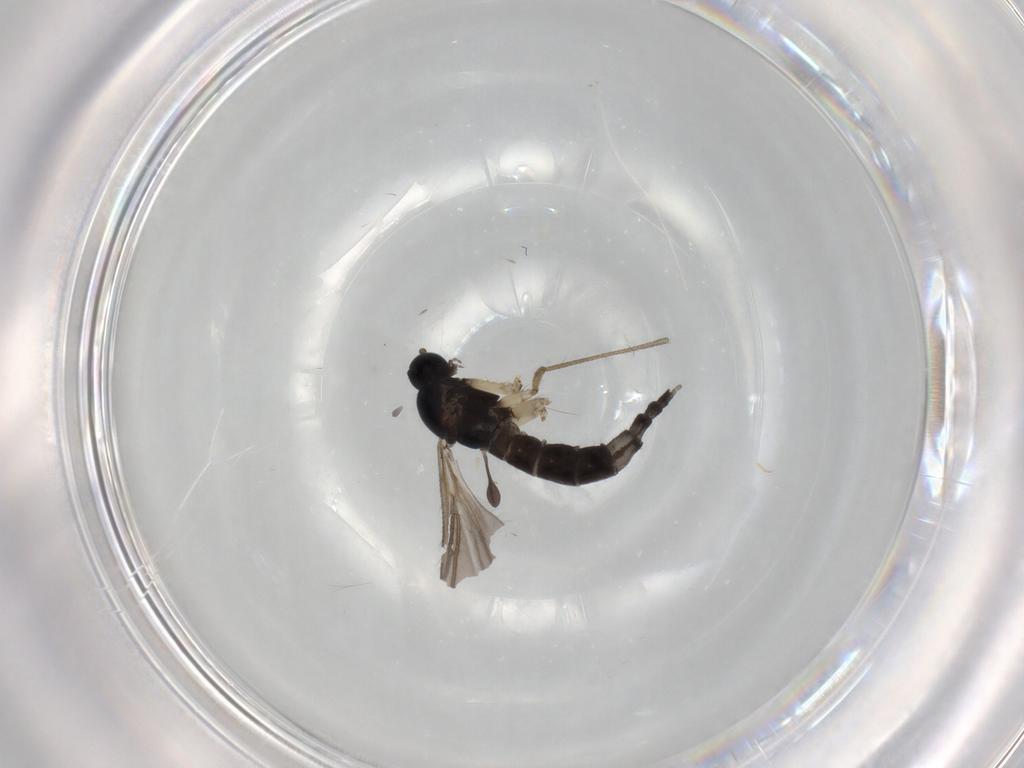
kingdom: Animalia
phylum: Arthropoda
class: Insecta
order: Diptera
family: Sciaridae
